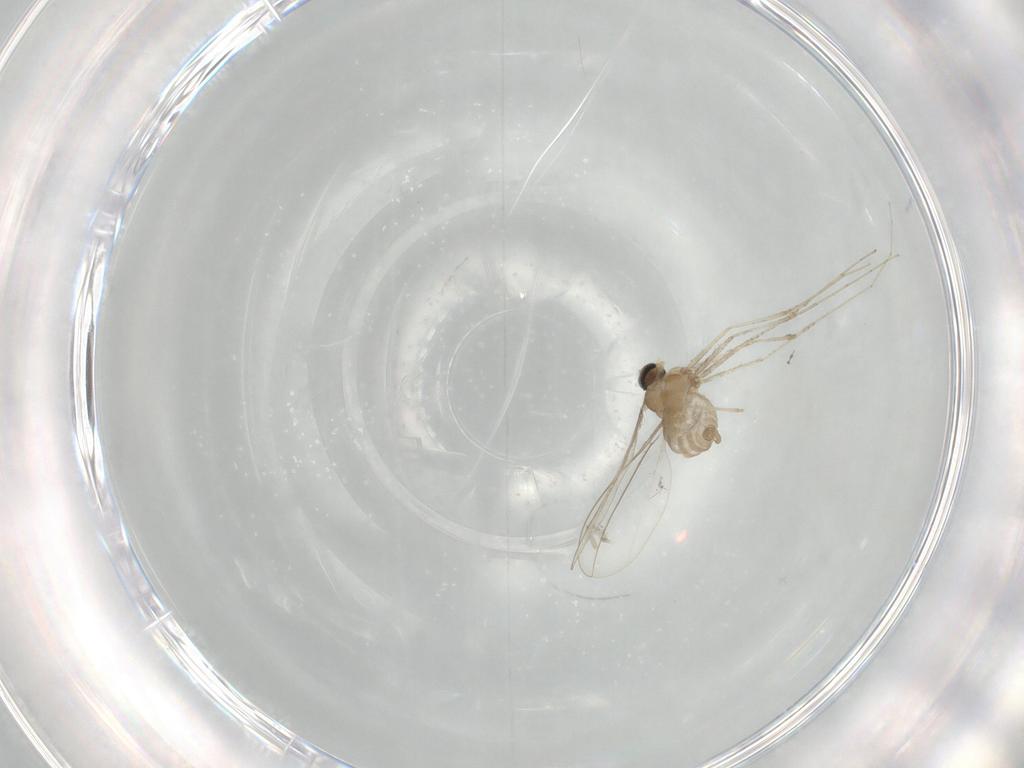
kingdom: Animalia
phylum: Arthropoda
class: Insecta
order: Diptera
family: Cecidomyiidae
